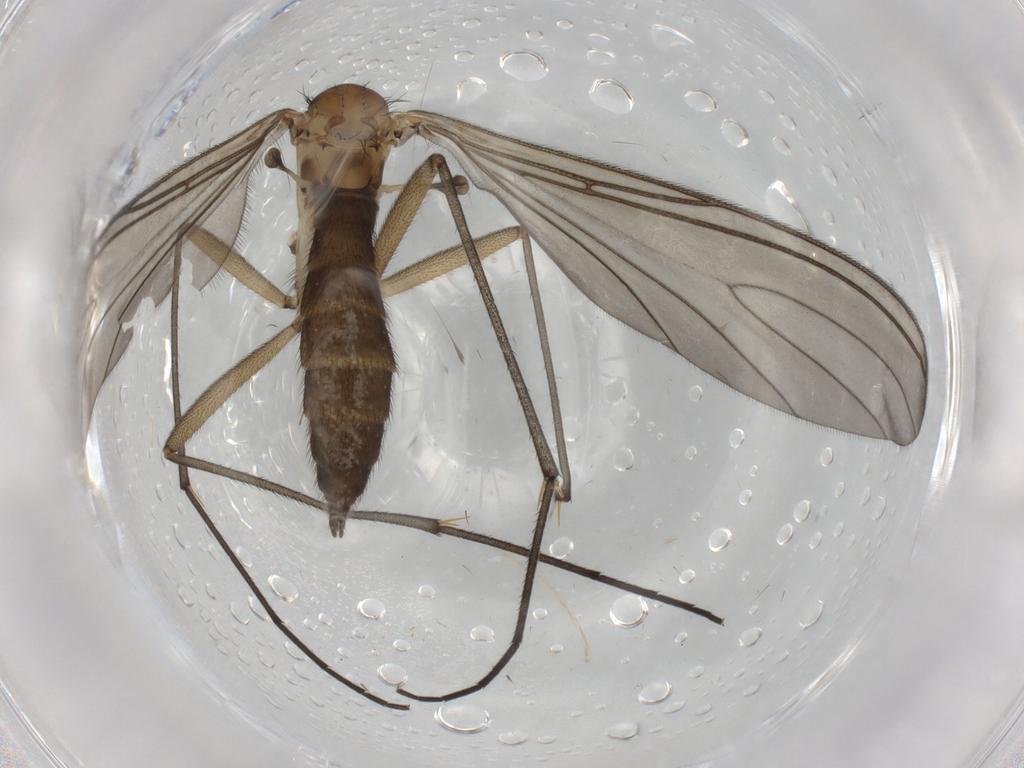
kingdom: Animalia
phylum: Arthropoda
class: Insecta
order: Diptera
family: Sciaridae
